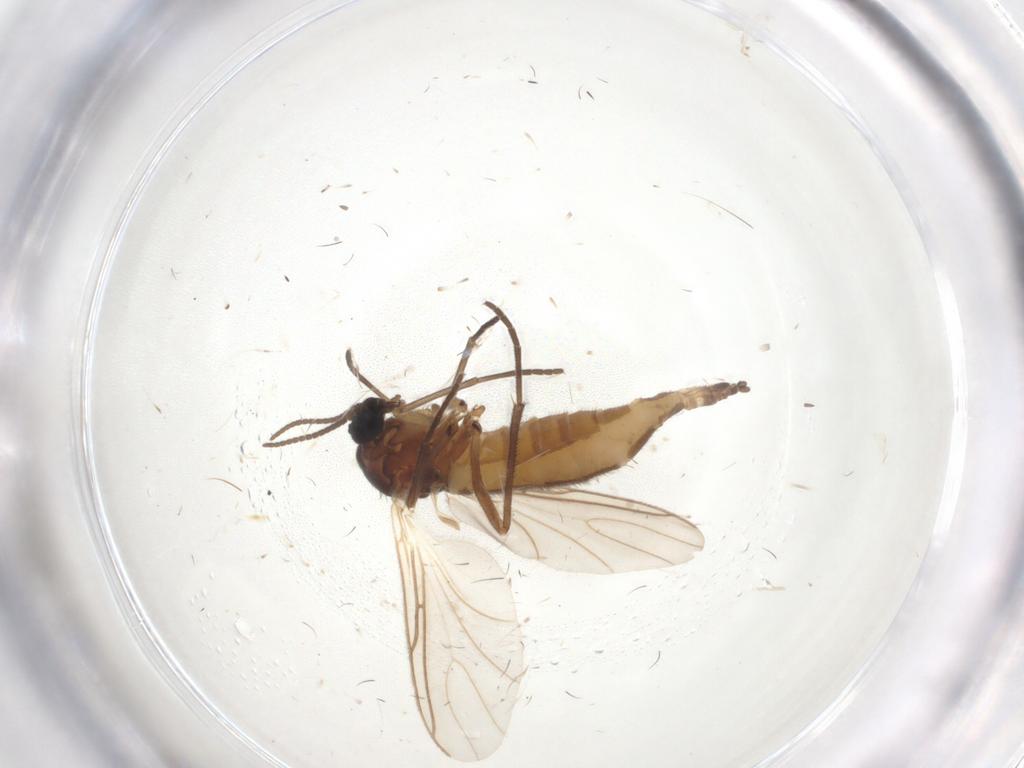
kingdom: Animalia
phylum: Arthropoda
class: Insecta
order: Diptera
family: Sciaridae
